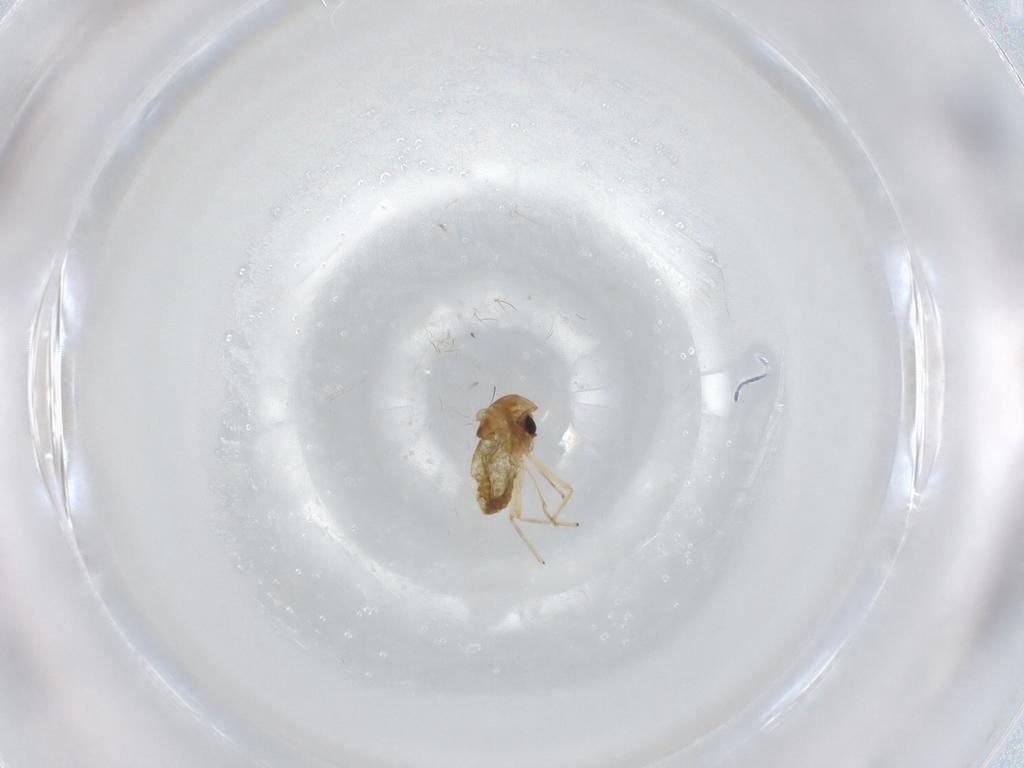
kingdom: Animalia
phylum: Arthropoda
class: Insecta
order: Diptera
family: Chironomidae
